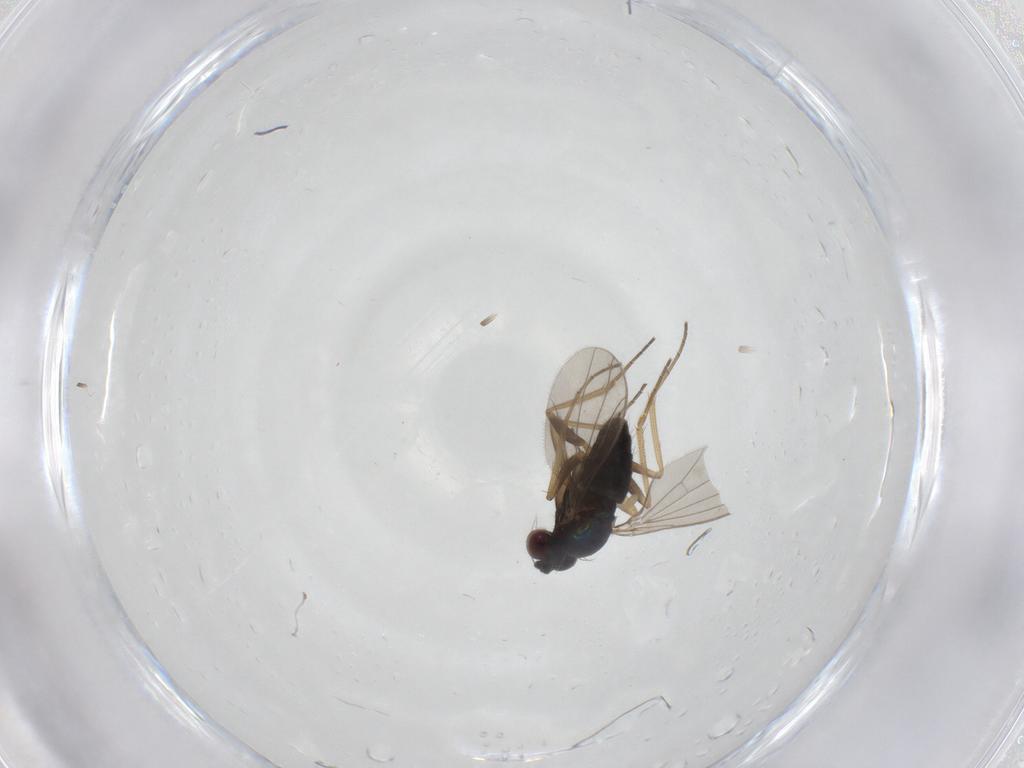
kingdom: Animalia
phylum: Arthropoda
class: Insecta
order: Diptera
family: Dolichopodidae
